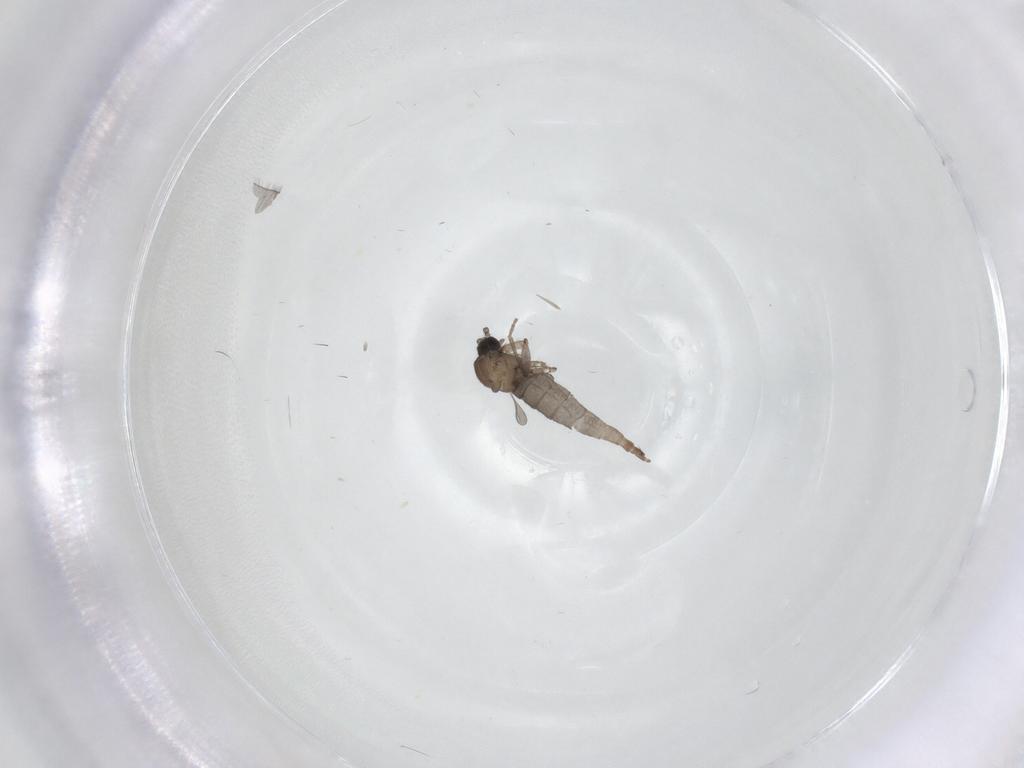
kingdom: Animalia
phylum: Arthropoda
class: Insecta
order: Diptera
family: Sciaridae
